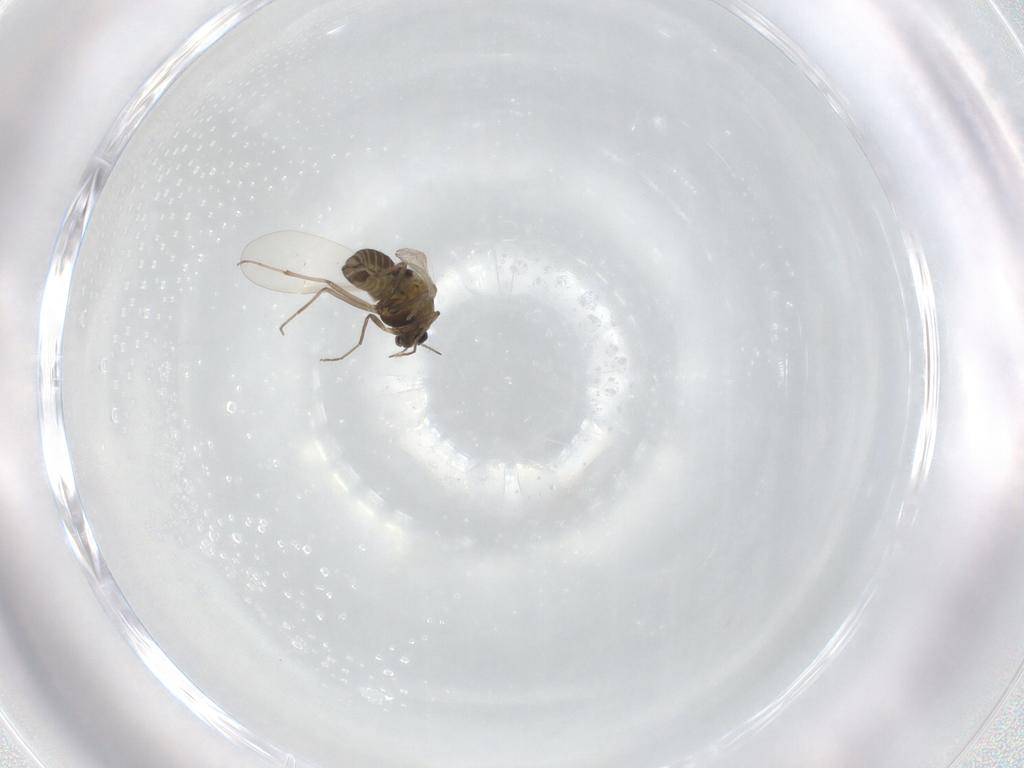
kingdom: Animalia
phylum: Arthropoda
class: Insecta
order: Diptera
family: Chironomidae
